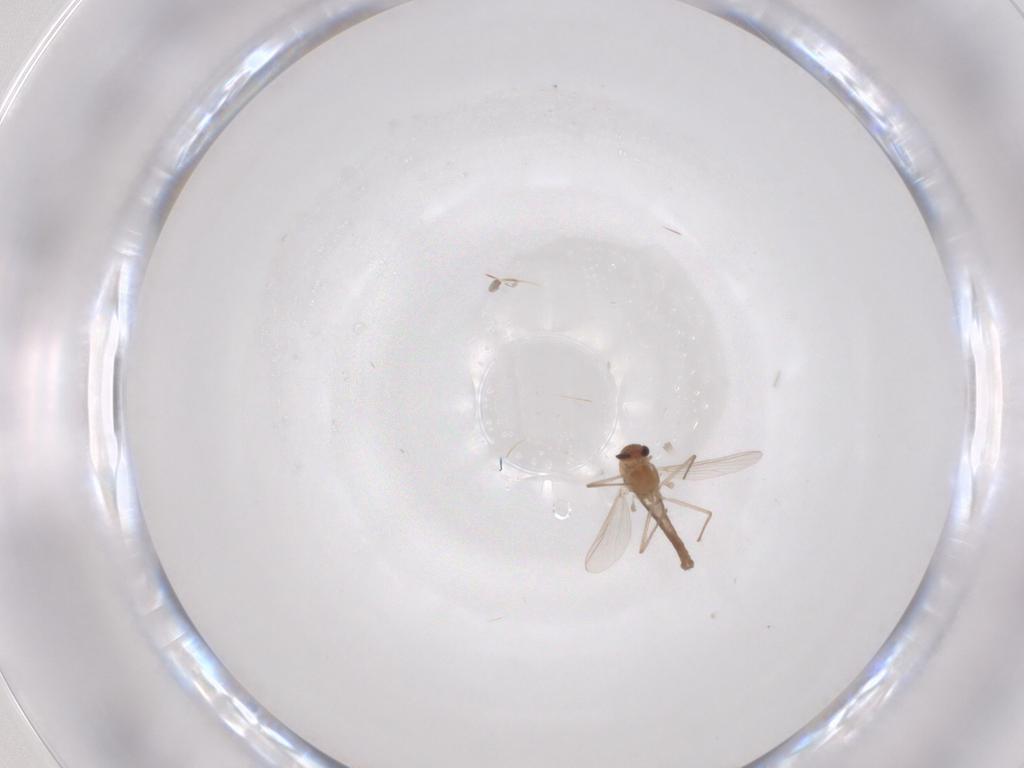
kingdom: Animalia
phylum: Arthropoda
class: Insecta
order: Diptera
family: Chironomidae
